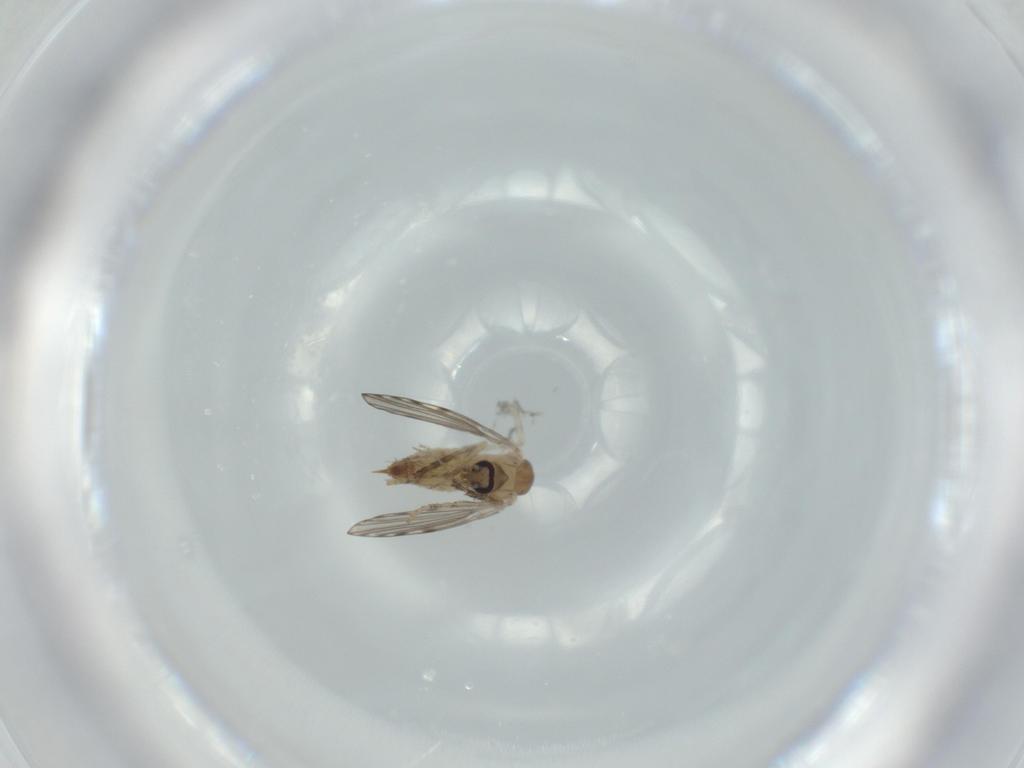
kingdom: Animalia
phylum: Arthropoda
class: Insecta
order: Diptera
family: Psychodidae
